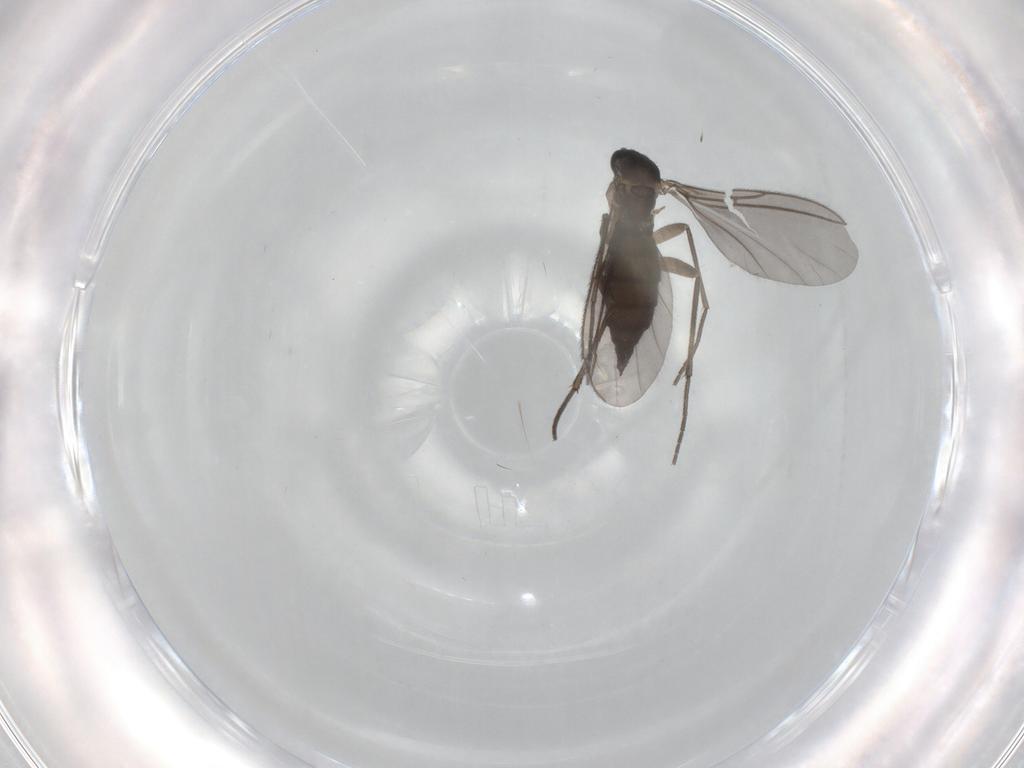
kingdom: Animalia
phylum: Arthropoda
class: Insecta
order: Diptera
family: Sciaridae
